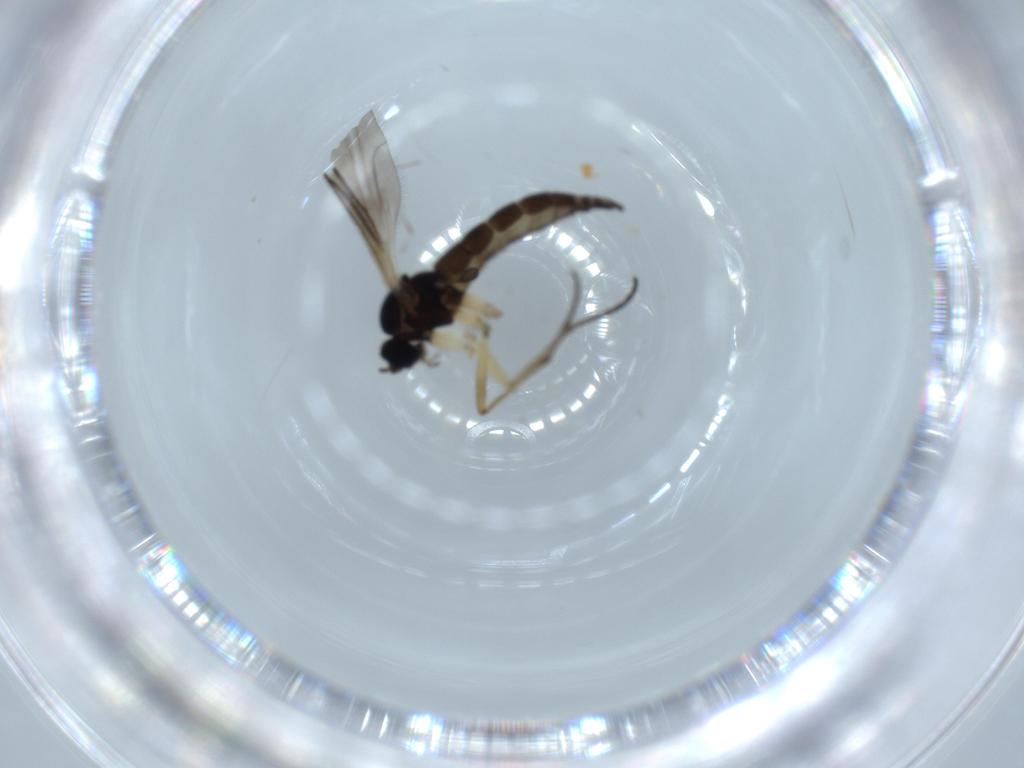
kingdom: Animalia
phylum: Arthropoda
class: Insecta
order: Diptera
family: Sciaridae
